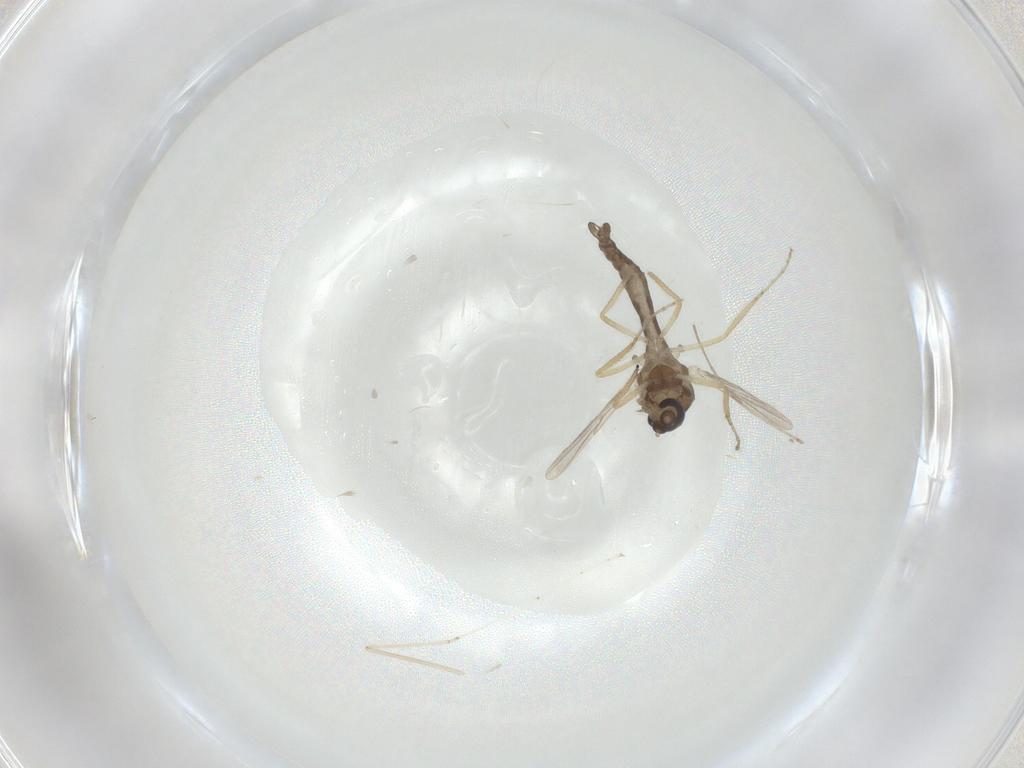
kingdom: Animalia
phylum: Arthropoda
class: Insecta
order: Diptera
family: Ceratopogonidae
